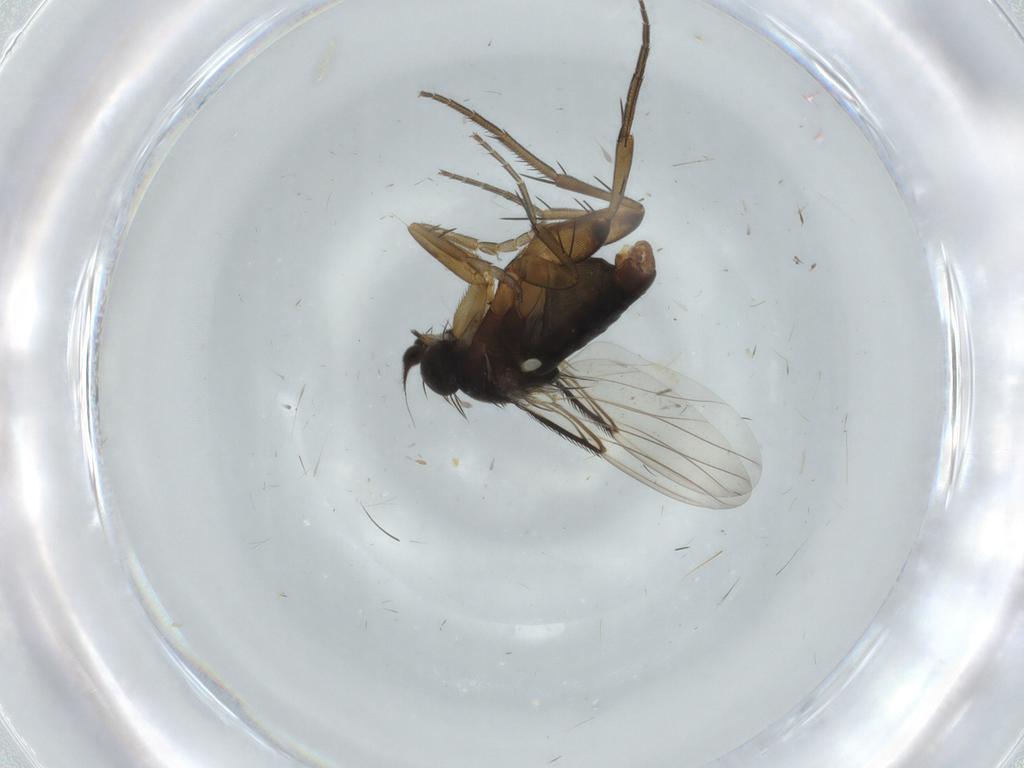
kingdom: Animalia
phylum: Arthropoda
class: Insecta
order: Diptera
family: Phoridae
